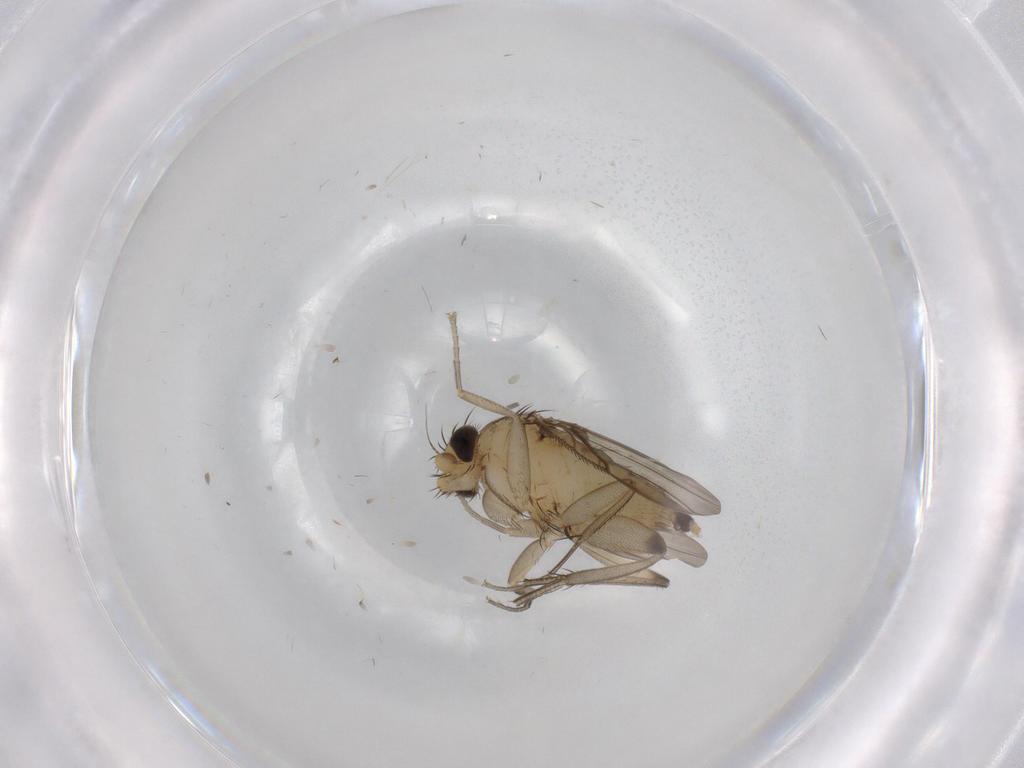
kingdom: Animalia
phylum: Arthropoda
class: Insecta
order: Diptera
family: Phoridae
